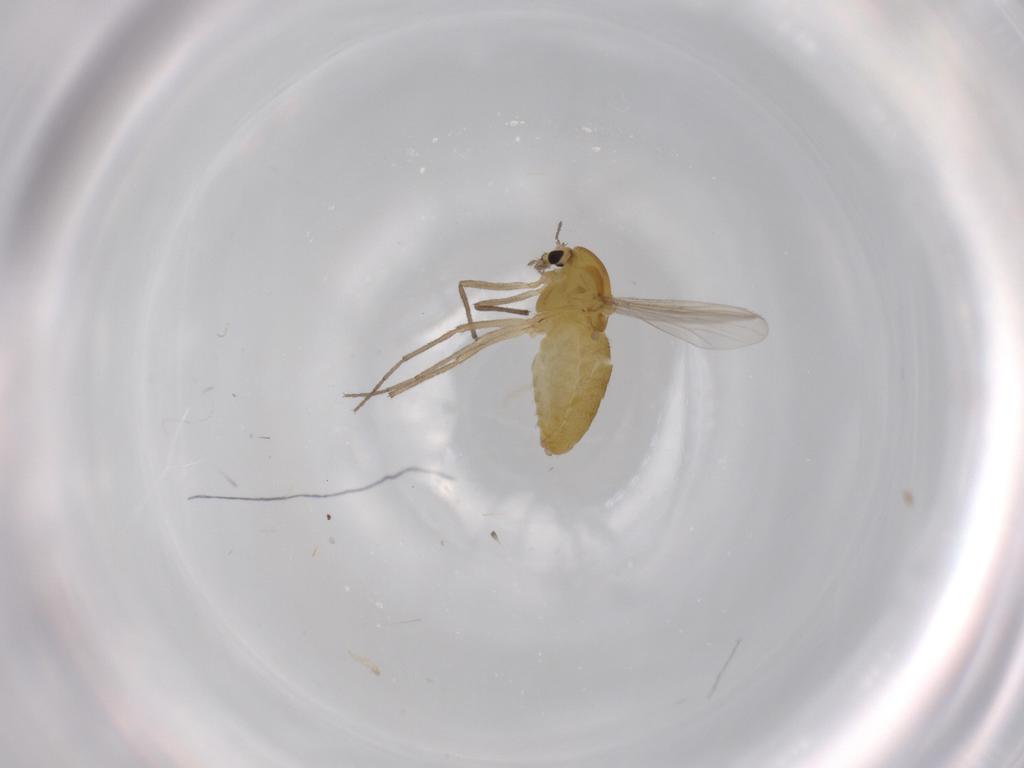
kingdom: Animalia
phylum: Arthropoda
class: Insecta
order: Diptera
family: Chironomidae
